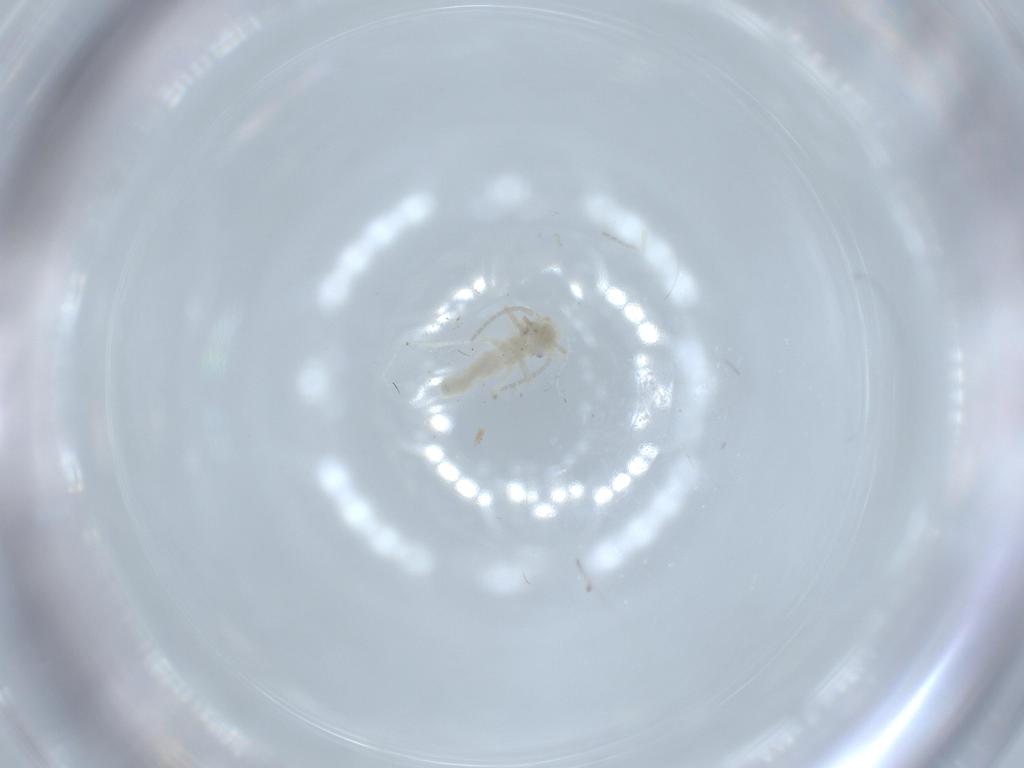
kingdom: Animalia
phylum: Arthropoda
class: Insecta
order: Psocodea
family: Caeciliusidae
